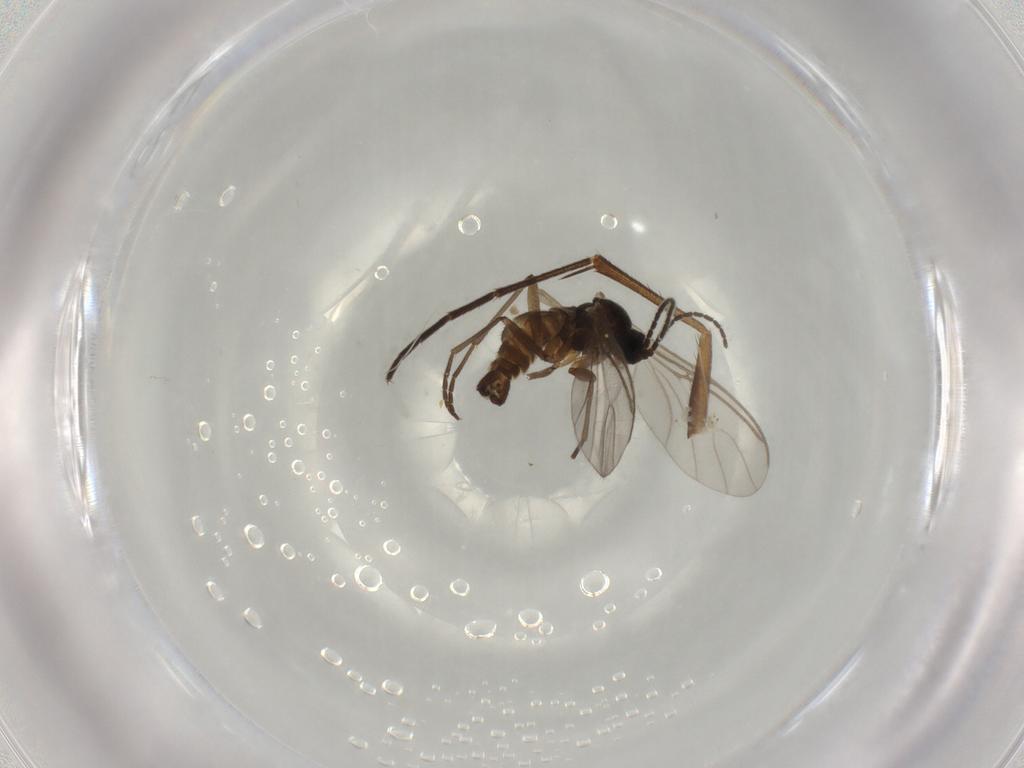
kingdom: Animalia
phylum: Arthropoda
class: Insecta
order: Diptera
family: Sciaridae
